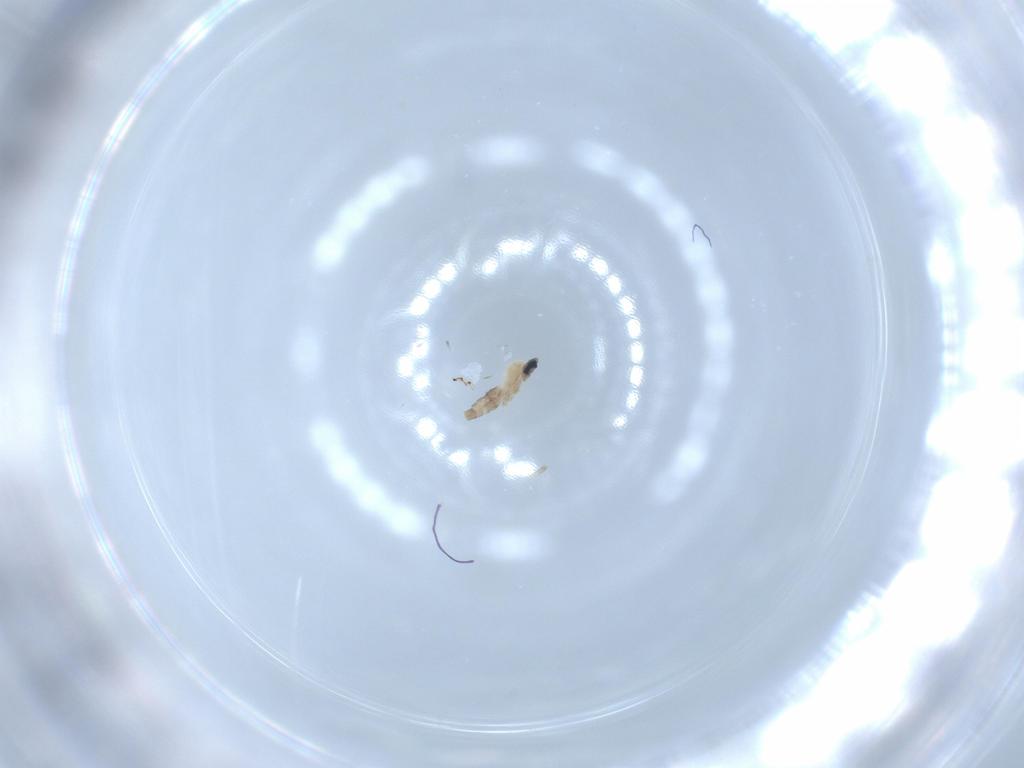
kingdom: Animalia
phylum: Arthropoda
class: Insecta
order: Diptera
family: Cecidomyiidae
